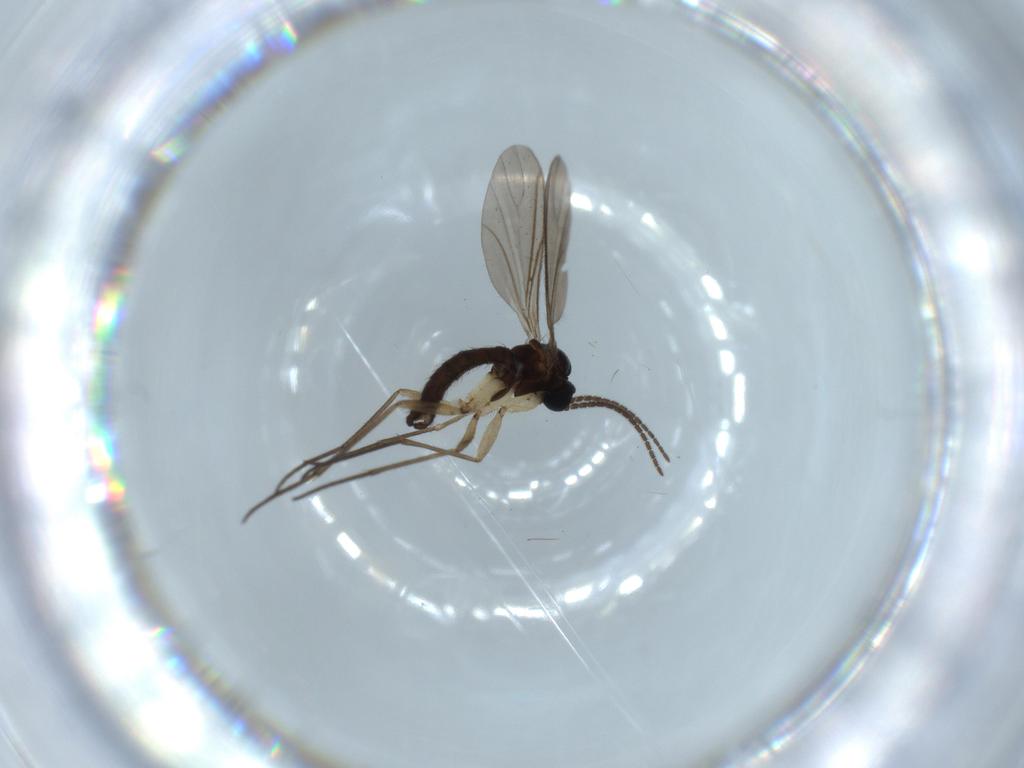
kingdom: Animalia
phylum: Arthropoda
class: Insecta
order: Diptera
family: Sciaridae
